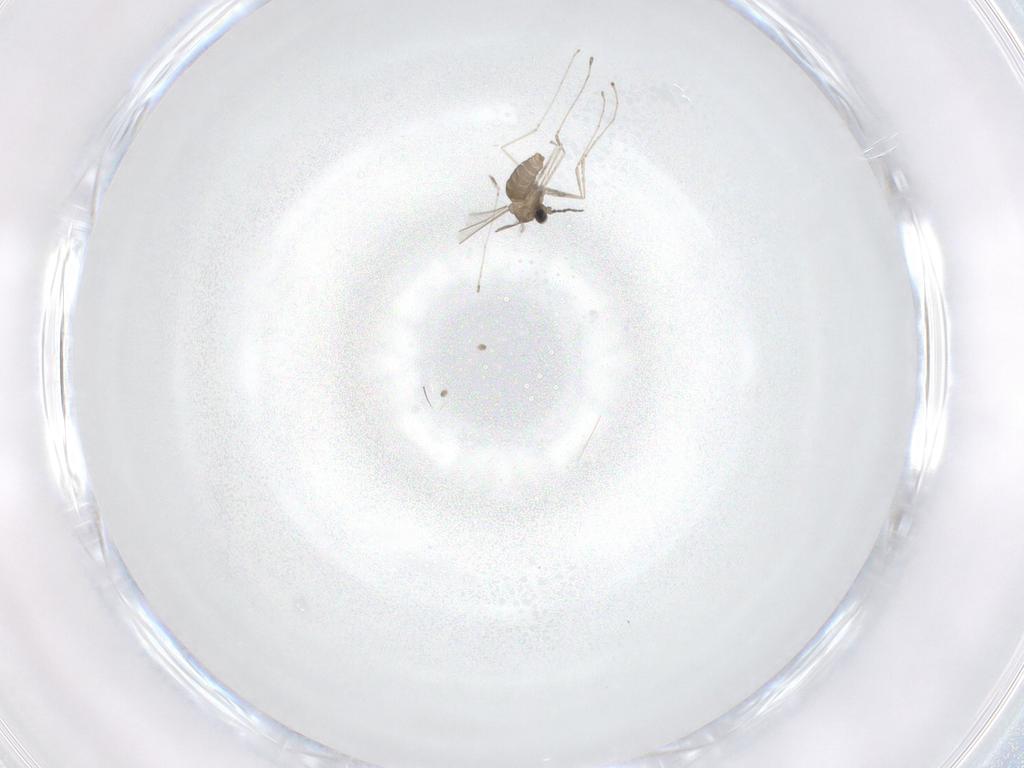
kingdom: Animalia
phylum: Arthropoda
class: Insecta
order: Diptera
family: Cecidomyiidae
